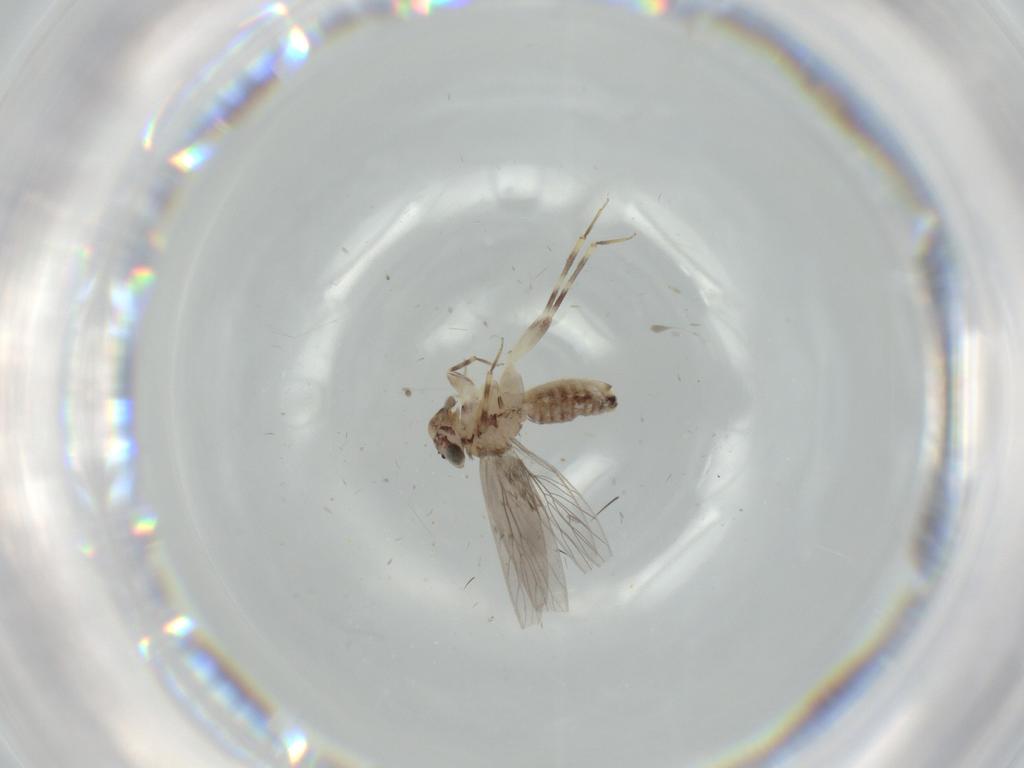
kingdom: Animalia
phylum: Arthropoda
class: Insecta
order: Psocodea
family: Lepidopsocidae
